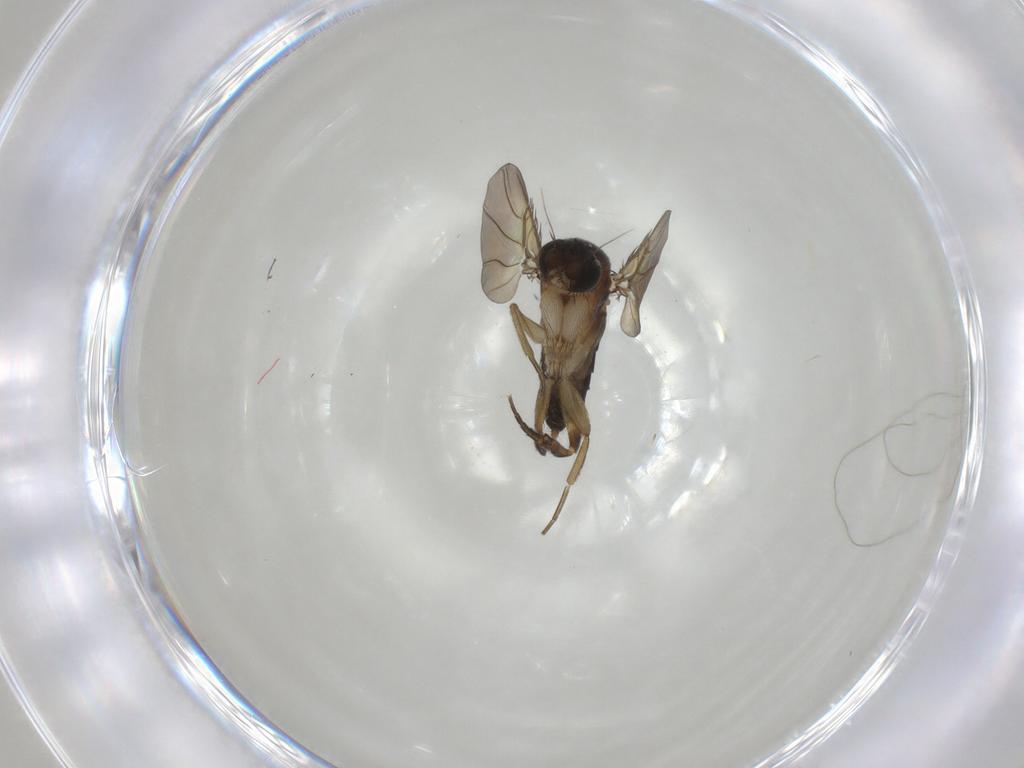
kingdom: Animalia
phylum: Arthropoda
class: Insecta
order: Diptera
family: Phoridae
